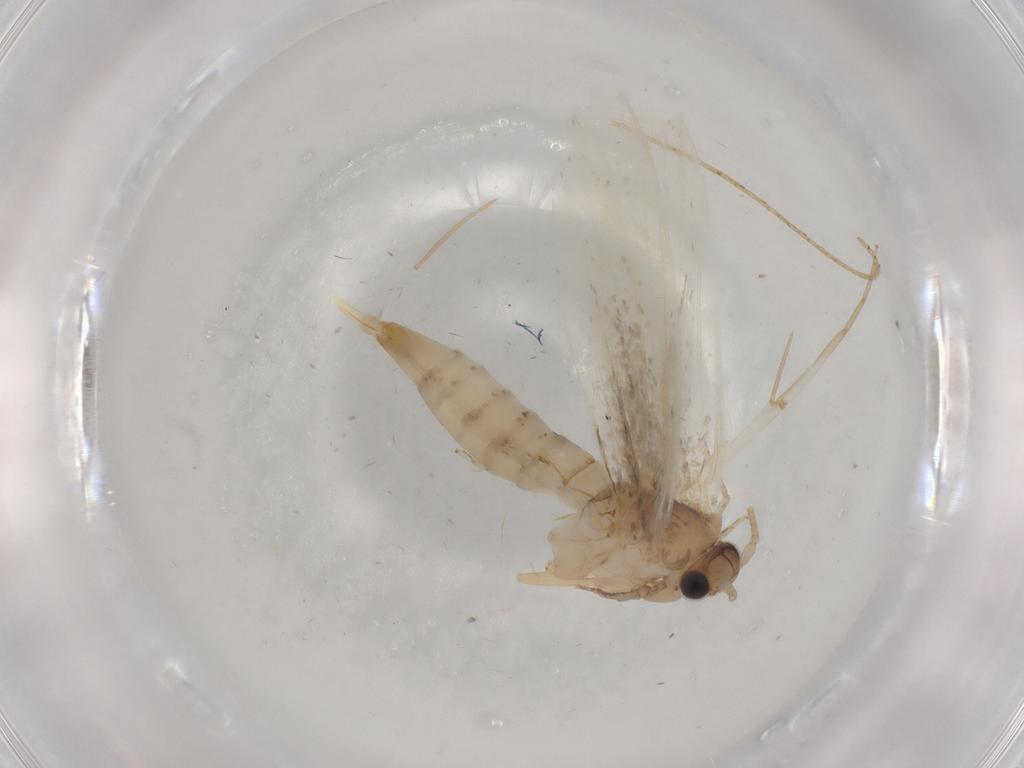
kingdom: Animalia
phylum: Arthropoda
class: Insecta
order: Lepidoptera
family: Tineidae
